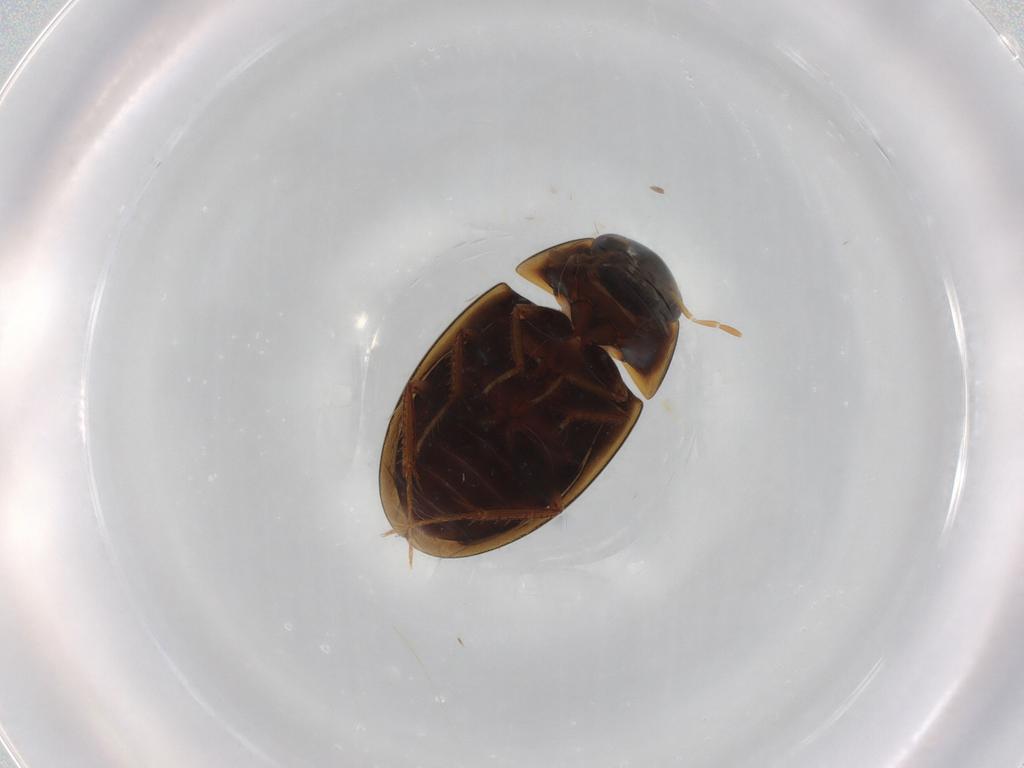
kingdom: Animalia
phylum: Arthropoda
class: Insecta
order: Coleoptera
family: Hydrophilidae
